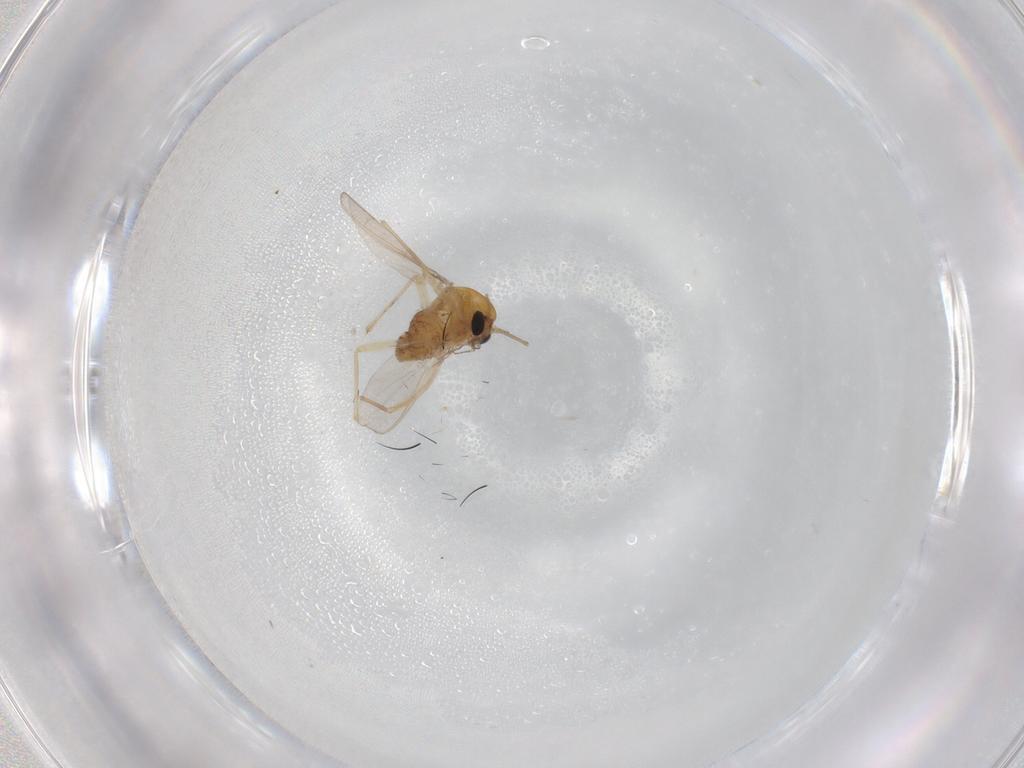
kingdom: Animalia
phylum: Arthropoda
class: Insecta
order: Diptera
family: Chironomidae
